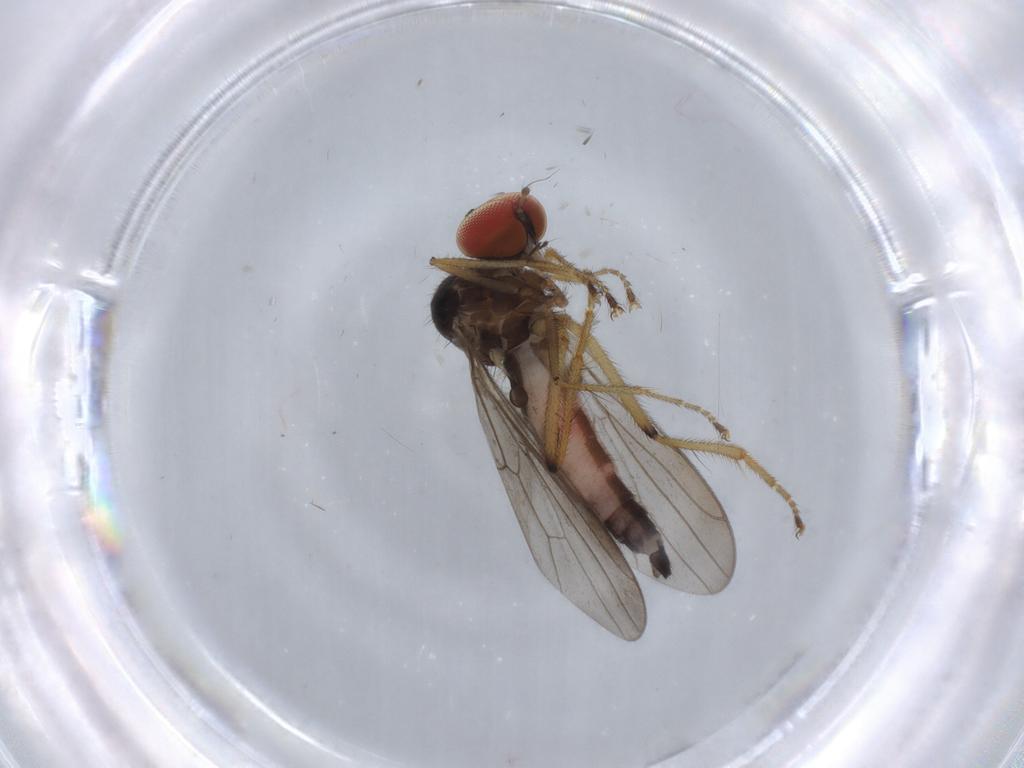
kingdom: Animalia
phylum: Arthropoda
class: Insecta
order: Diptera
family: Hybotidae
